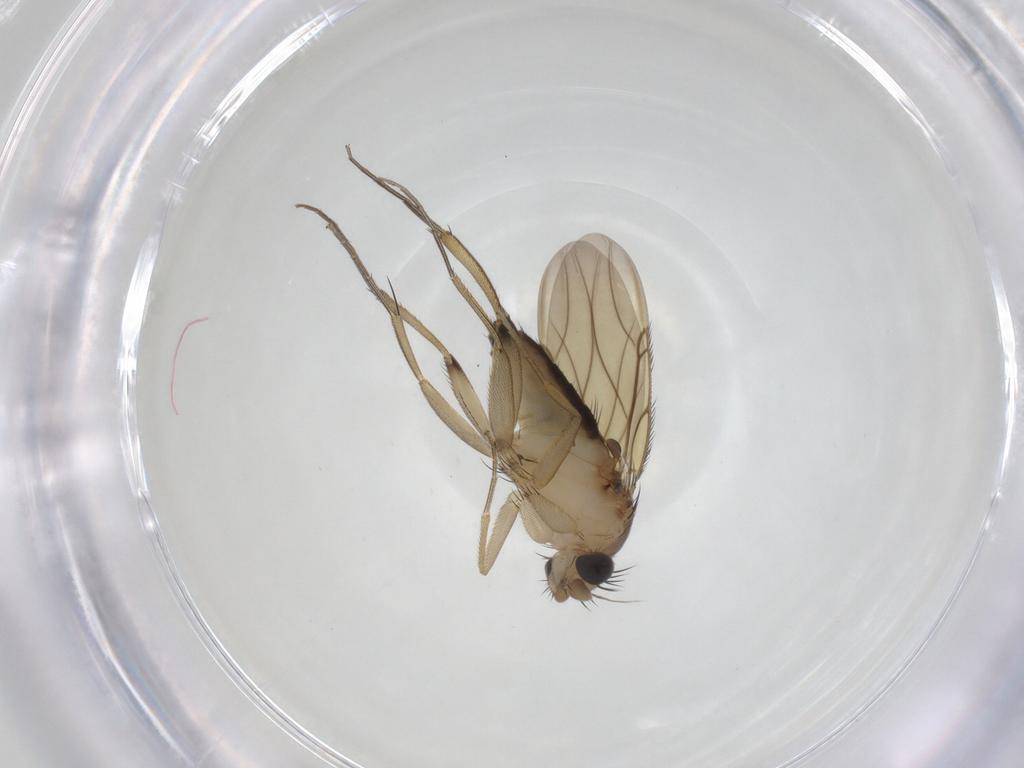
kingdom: Animalia
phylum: Arthropoda
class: Insecta
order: Diptera
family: Phoridae
